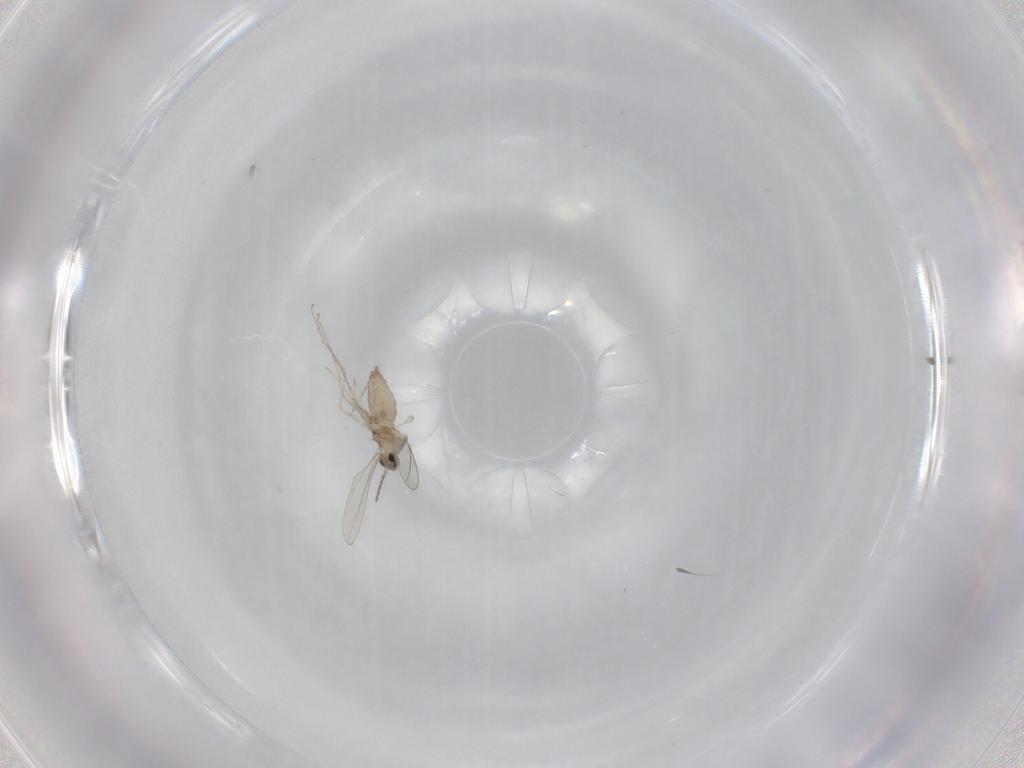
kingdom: Animalia
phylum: Arthropoda
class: Insecta
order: Diptera
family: Cecidomyiidae
